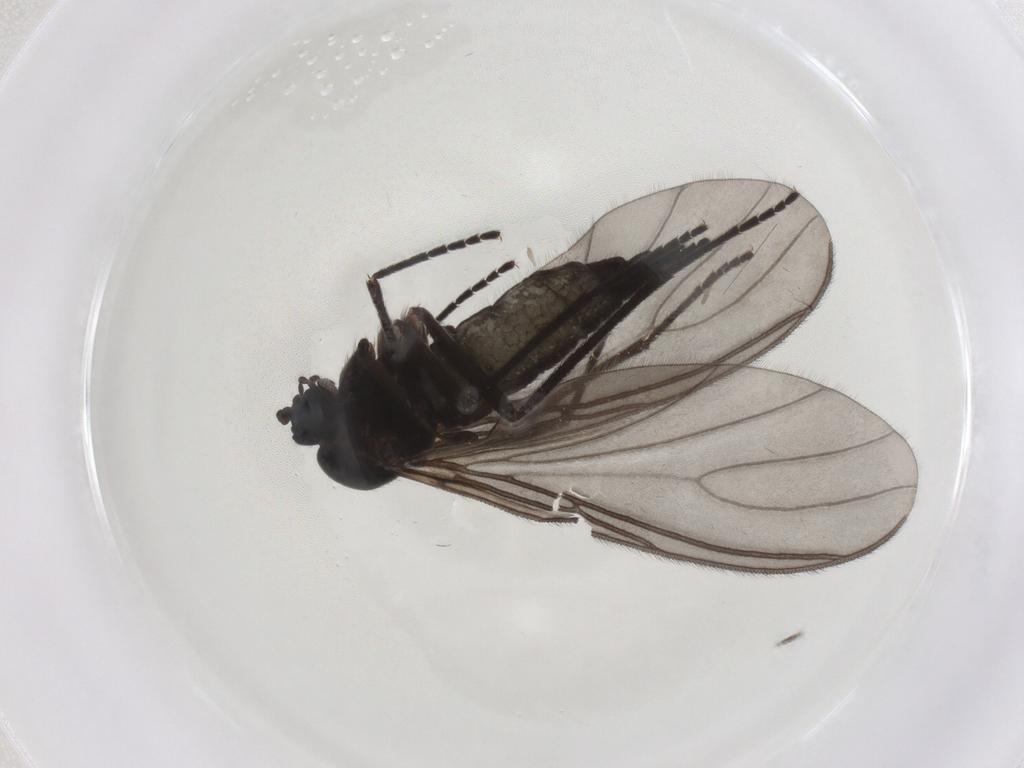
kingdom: Animalia
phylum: Arthropoda
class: Insecta
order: Diptera
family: Sciaridae
